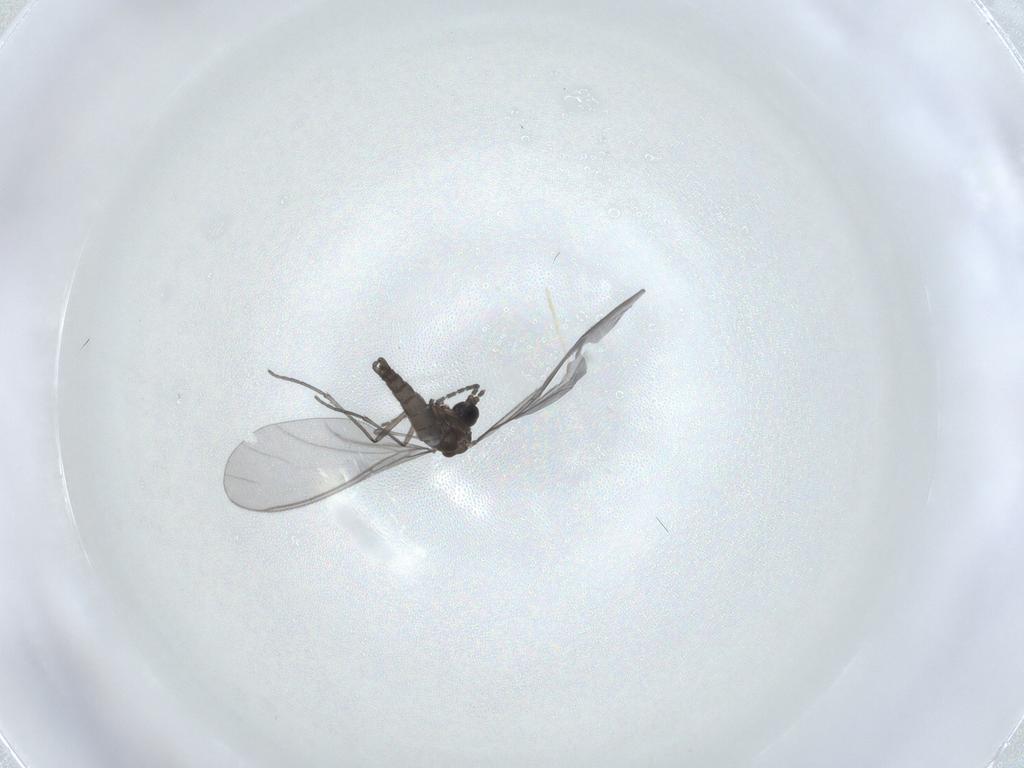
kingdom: Animalia
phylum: Arthropoda
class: Insecta
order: Diptera
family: Sciaridae
